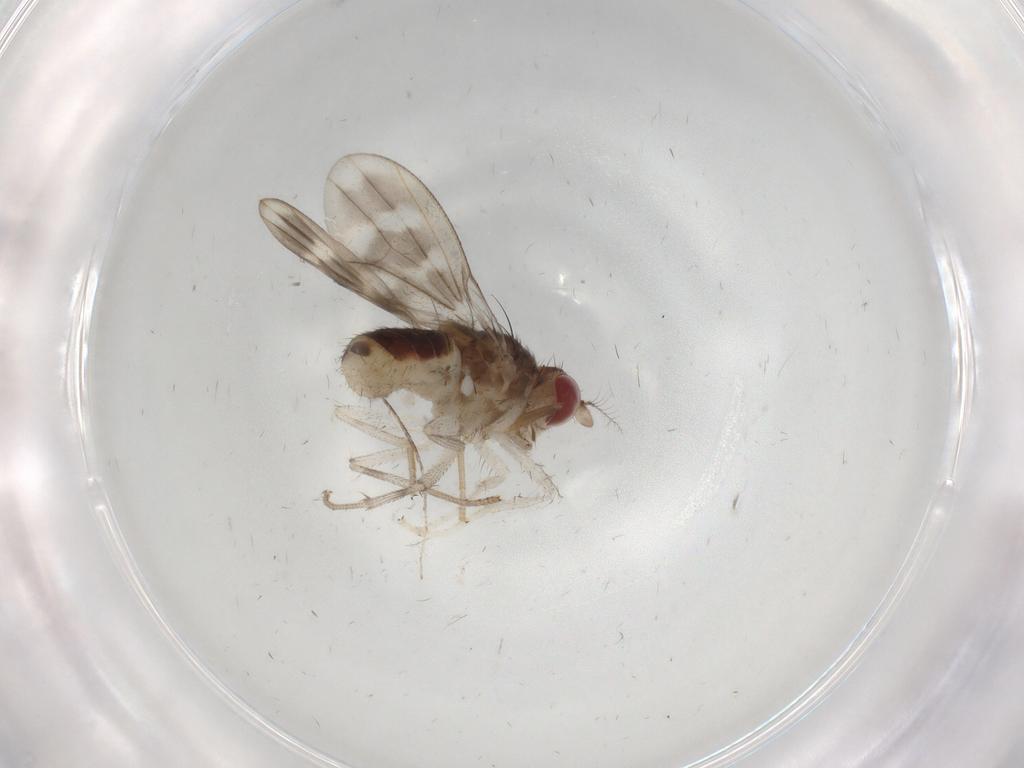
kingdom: Animalia
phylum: Arthropoda
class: Insecta
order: Diptera
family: Lauxaniidae
